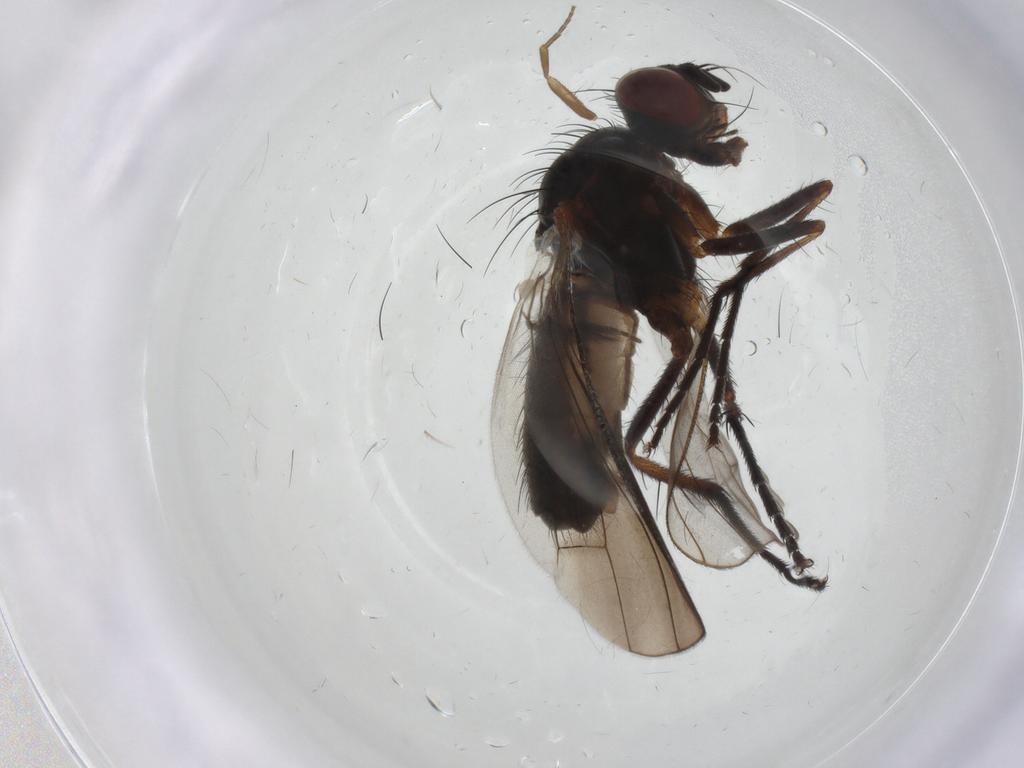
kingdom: Animalia
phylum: Arthropoda
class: Insecta
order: Diptera
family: Anthomyiidae
